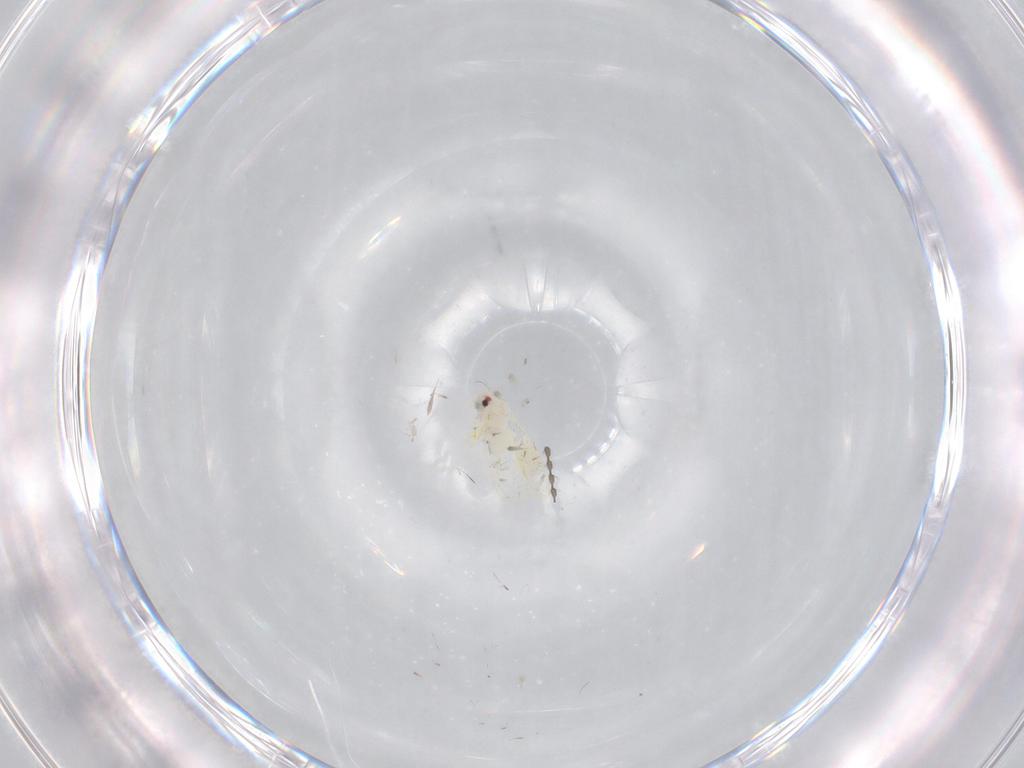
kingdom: Animalia
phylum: Arthropoda
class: Insecta
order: Hemiptera
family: Aleyrodidae
